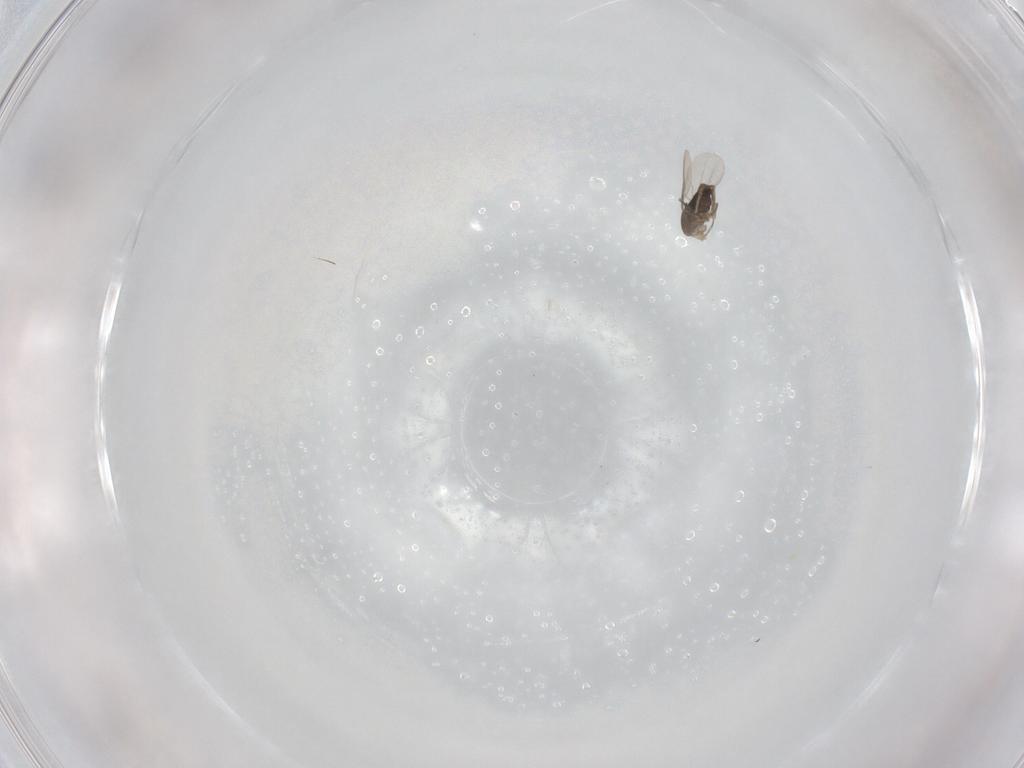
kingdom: Animalia
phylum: Arthropoda
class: Insecta
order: Diptera
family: Phoridae
